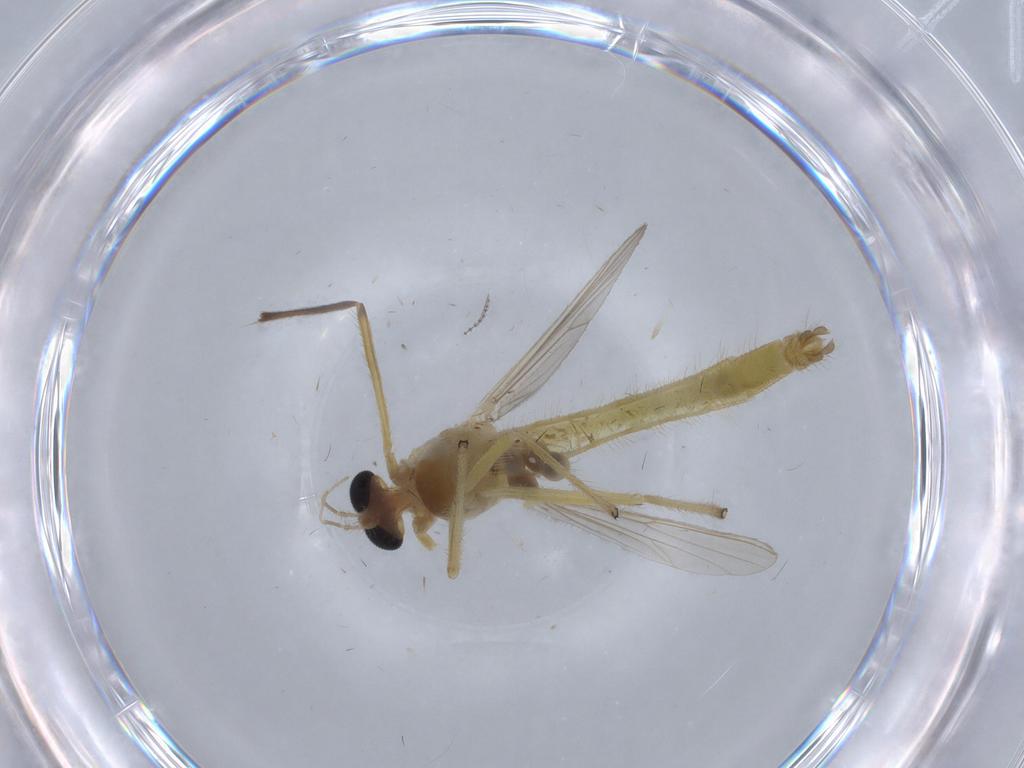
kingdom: Animalia
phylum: Arthropoda
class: Insecta
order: Diptera
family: Chironomidae
